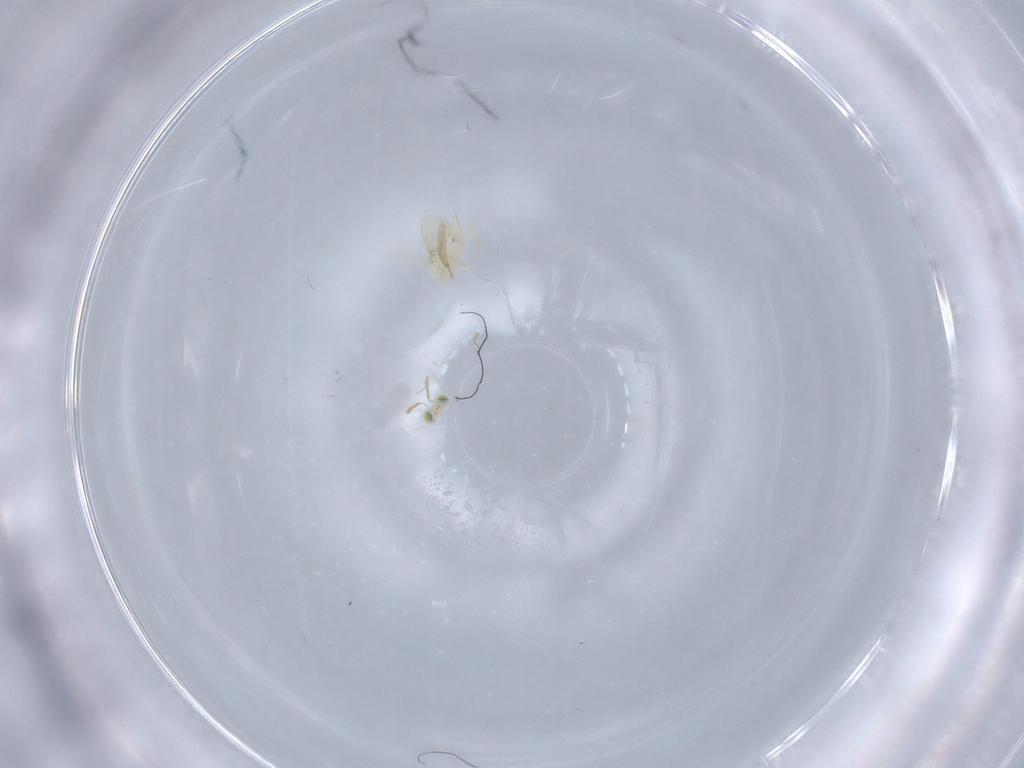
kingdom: Animalia
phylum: Arthropoda
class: Insecta
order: Hymenoptera
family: Aphelinidae
